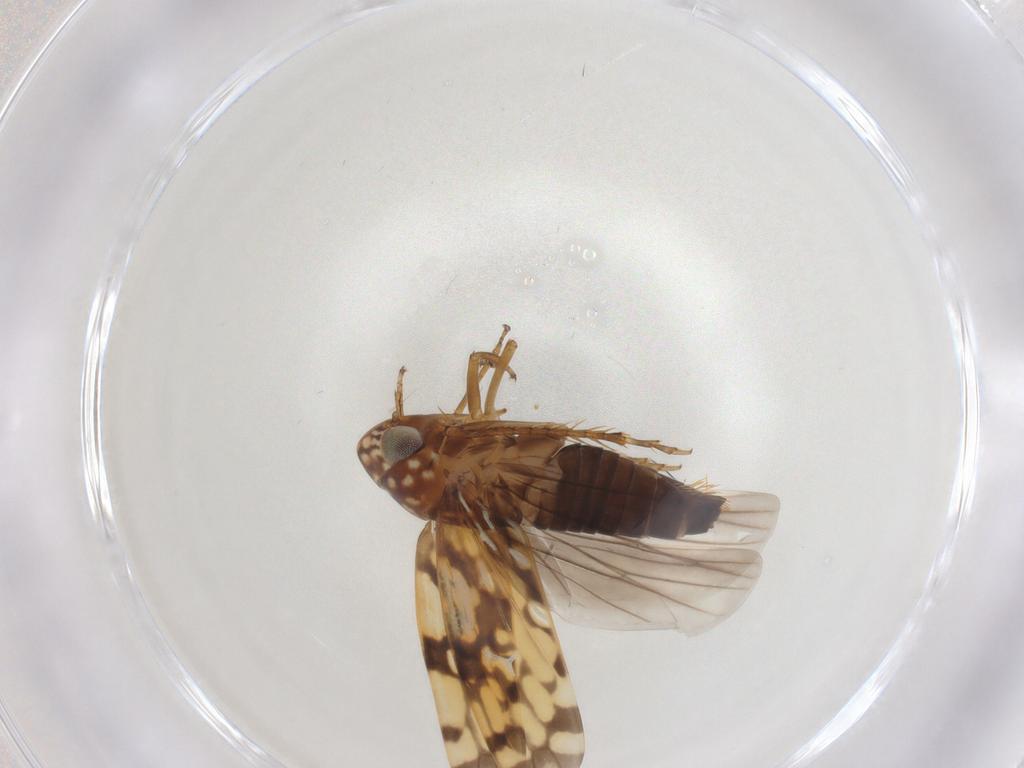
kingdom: Animalia
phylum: Arthropoda
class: Insecta
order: Hemiptera
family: Cicadellidae
